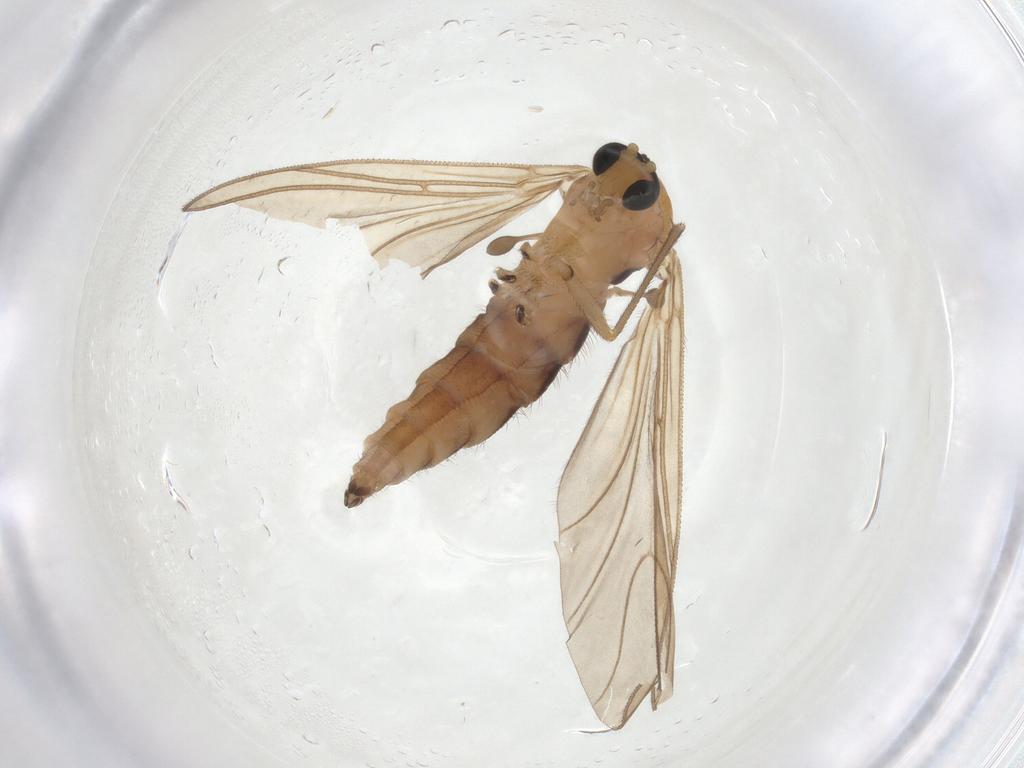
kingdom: Animalia
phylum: Arthropoda
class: Insecta
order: Diptera
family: Sciaridae
